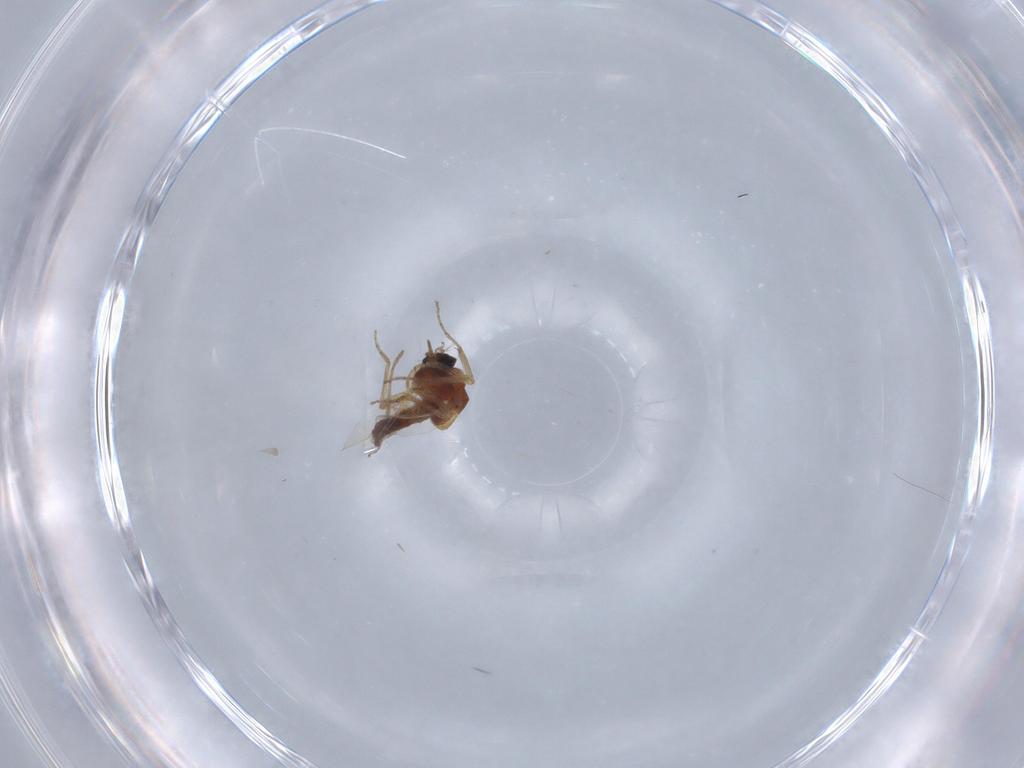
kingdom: Animalia
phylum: Arthropoda
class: Insecta
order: Diptera
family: Ceratopogonidae
